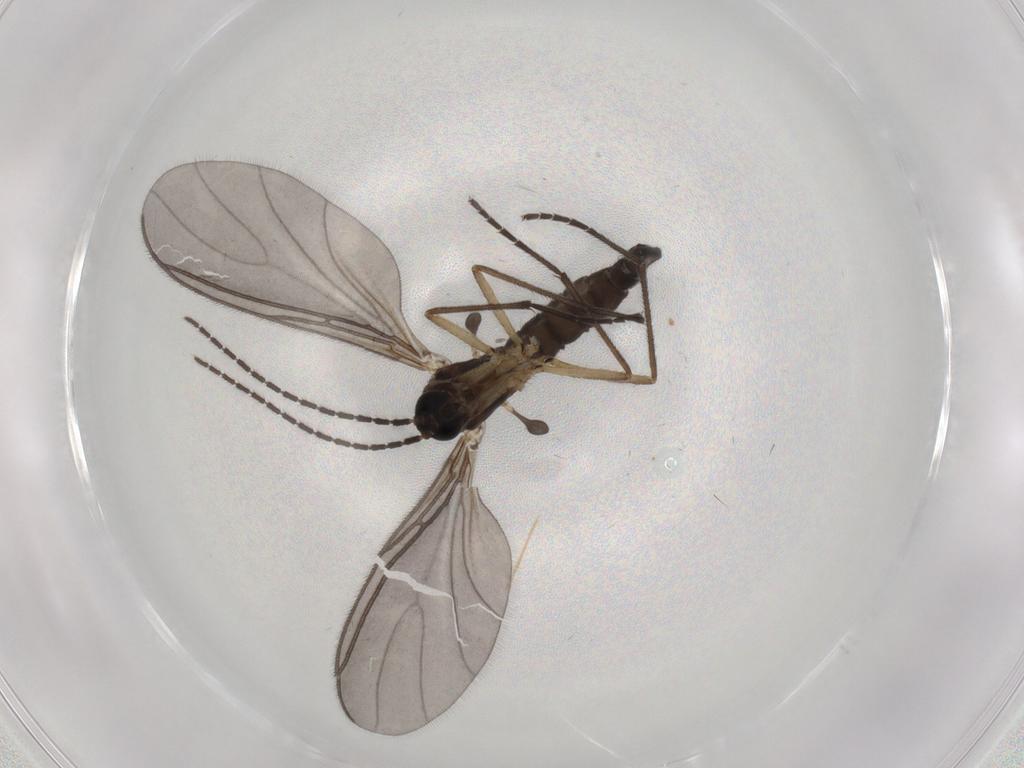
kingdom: Animalia
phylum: Arthropoda
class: Insecta
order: Diptera
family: Sciaridae
